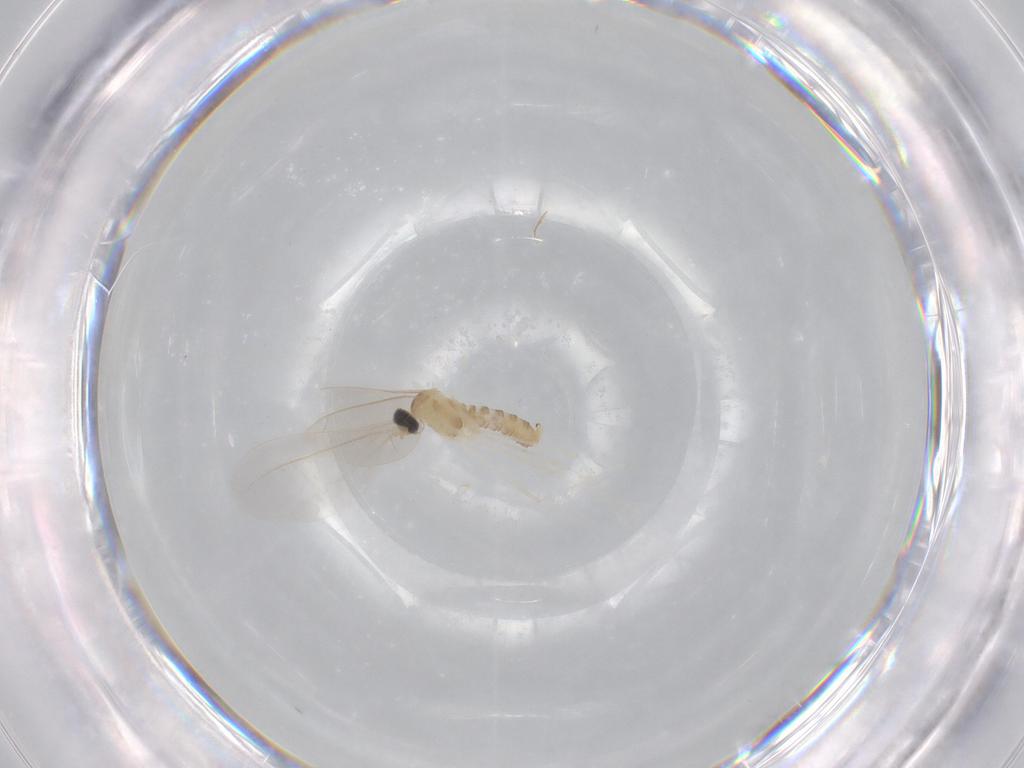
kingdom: Animalia
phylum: Arthropoda
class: Insecta
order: Diptera
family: Cecidomyiidae
